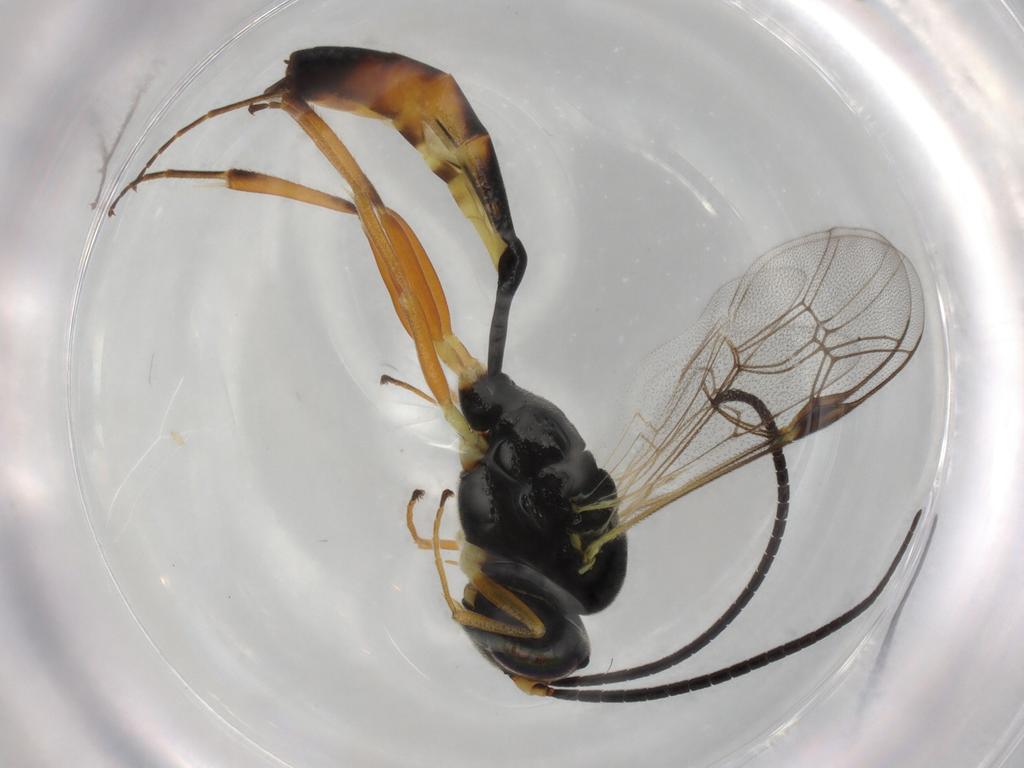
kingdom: Animalia
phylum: Arthropoda
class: Insecta
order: Hymenoptera
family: Ichneumonidae
